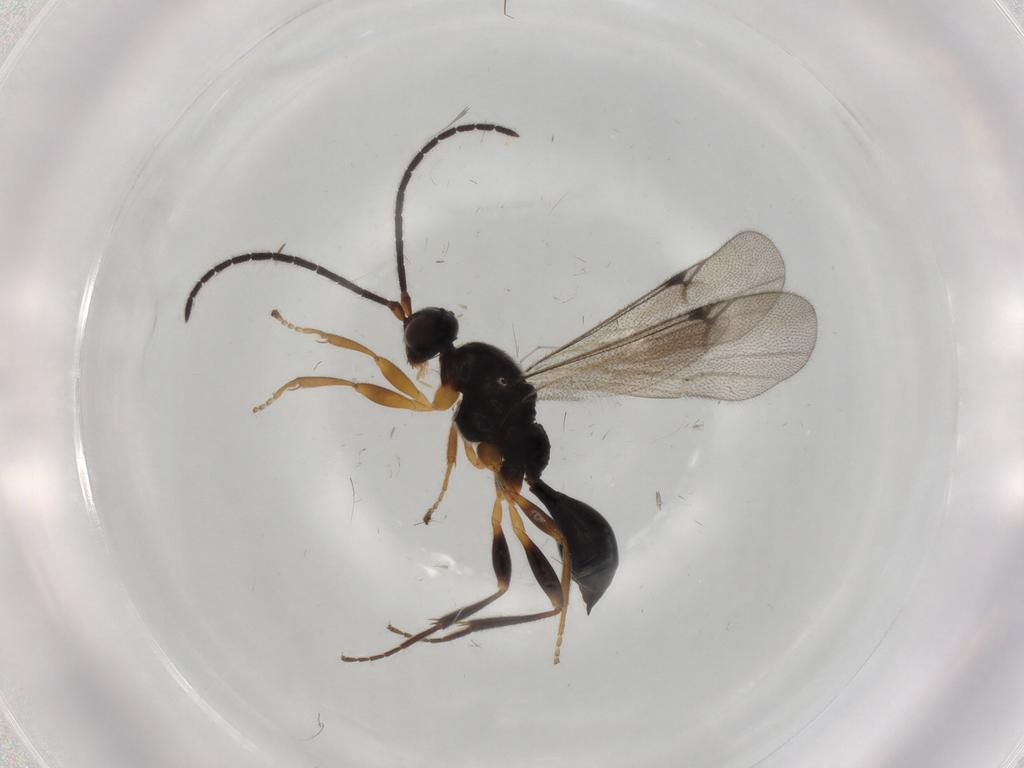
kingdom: Animalia
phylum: Arthropoda
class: Insecta
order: Hymenoptera
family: Proctotrupidae
